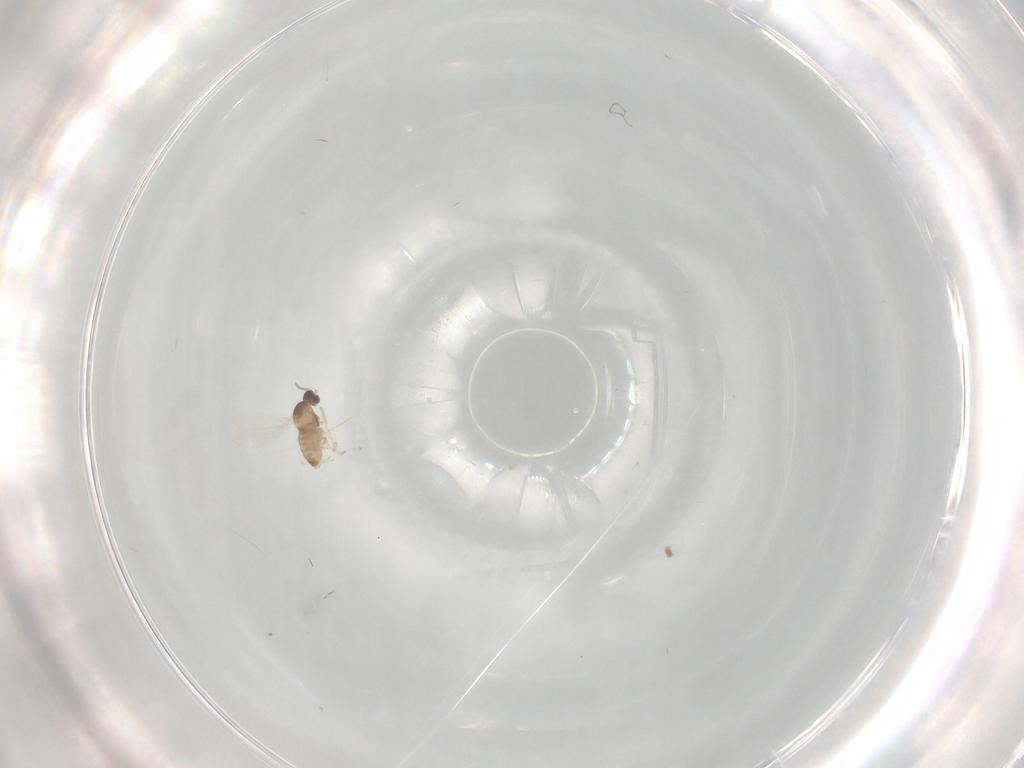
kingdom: Animalia
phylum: Arthropoda
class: Insecta
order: Diptera
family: Cecidomyiidae
